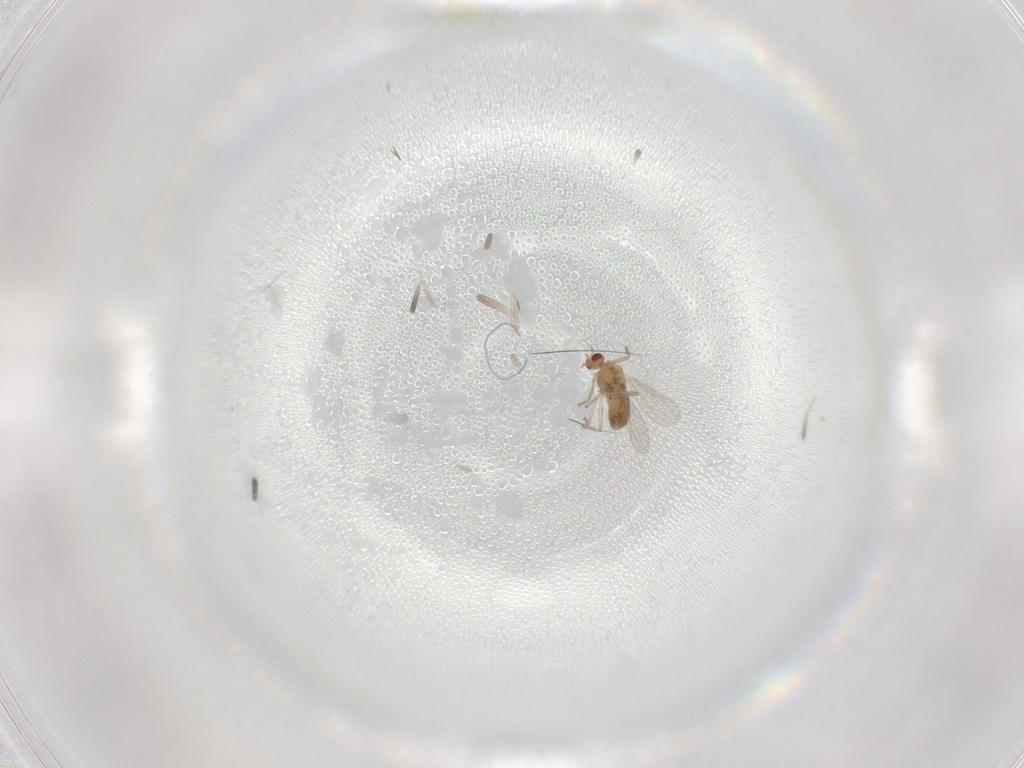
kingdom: Animalia
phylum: Arthropoda
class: Insecta
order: Diptera
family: Chironomidae
